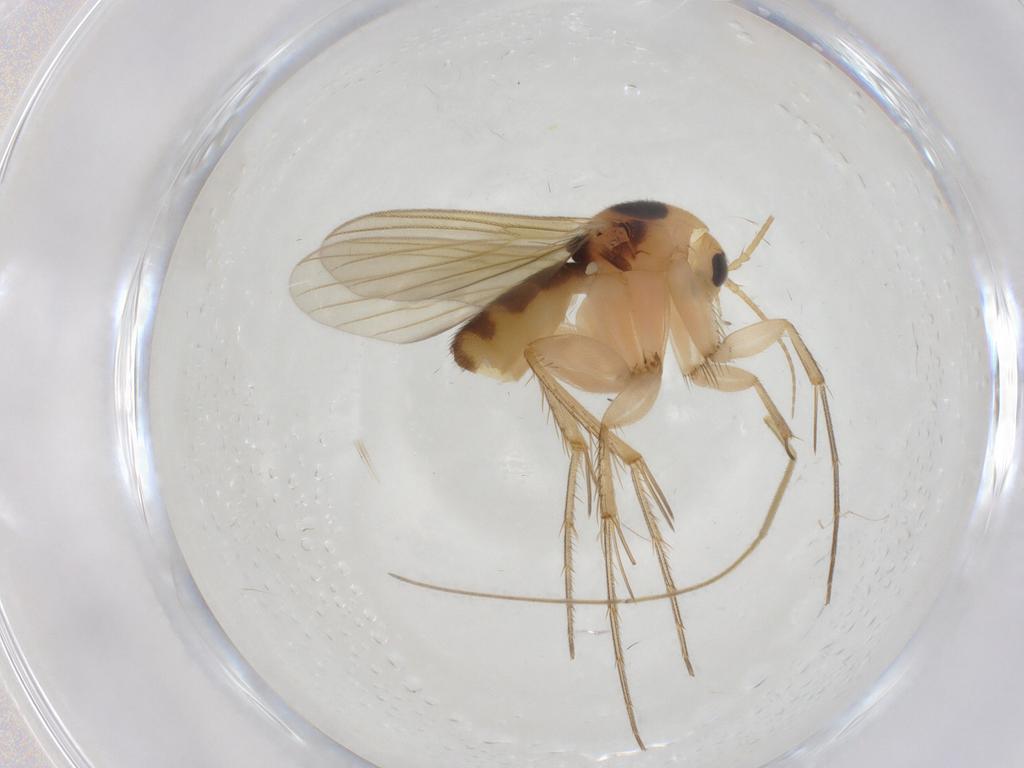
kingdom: Animalia
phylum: Arthropoda
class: Insecta
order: Diptera
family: Mycetophilidae
